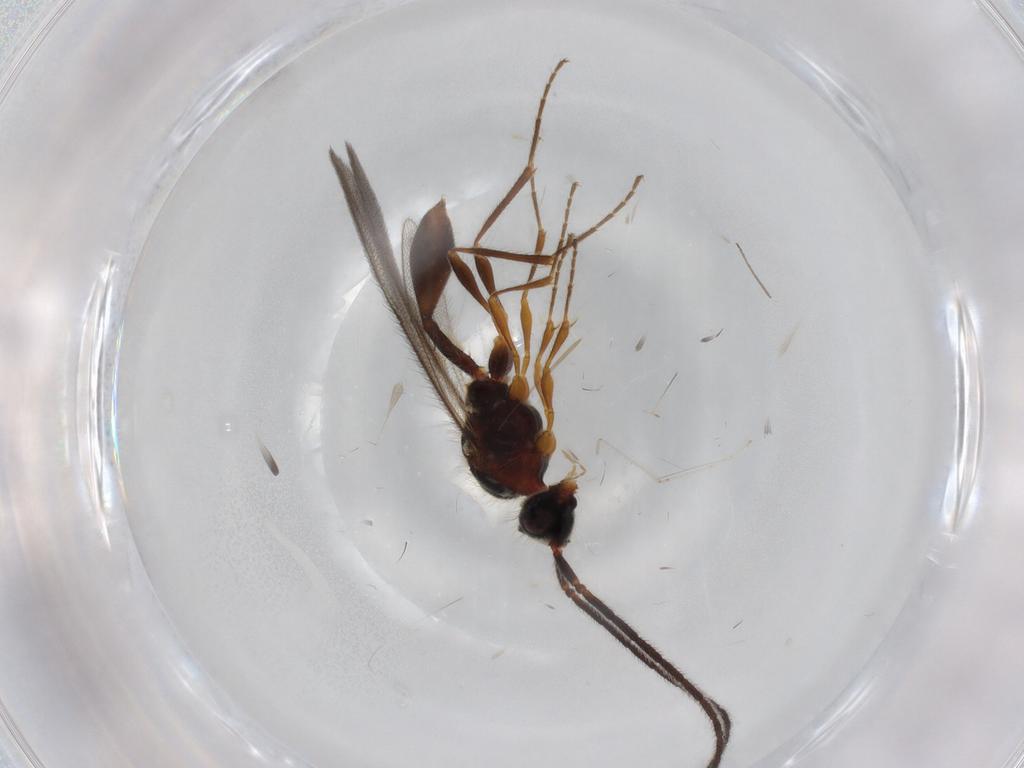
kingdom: Animalia
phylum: Arthropoda
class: Insecta
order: Hymenoptera
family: Diapriidae
